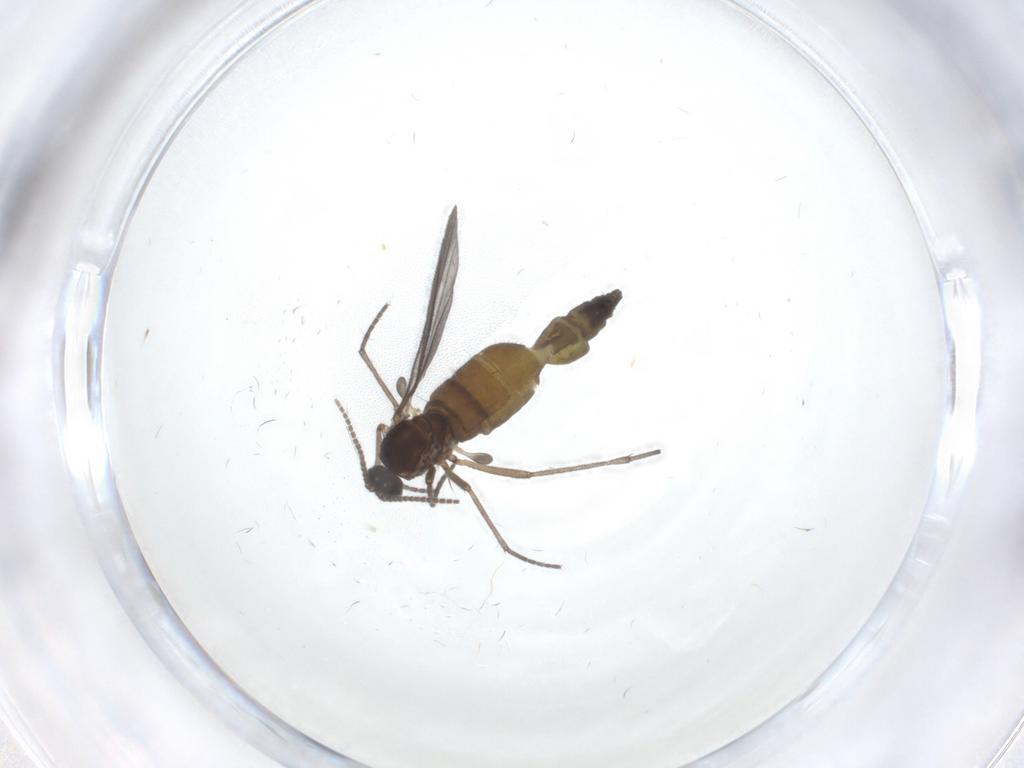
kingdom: Animalia
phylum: Arthropoda
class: Insecta
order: Diptera
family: Sciaridae
